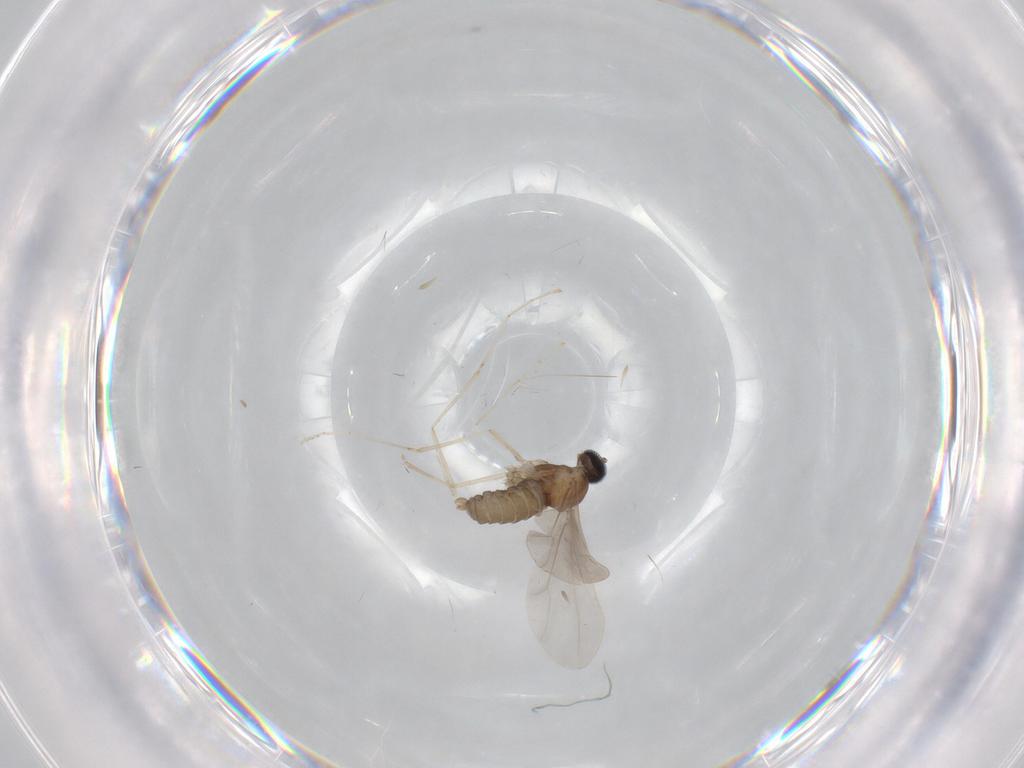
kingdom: Animalia
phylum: Arthropoda
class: Insecta
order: Diptera
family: Cecidomyiidae
